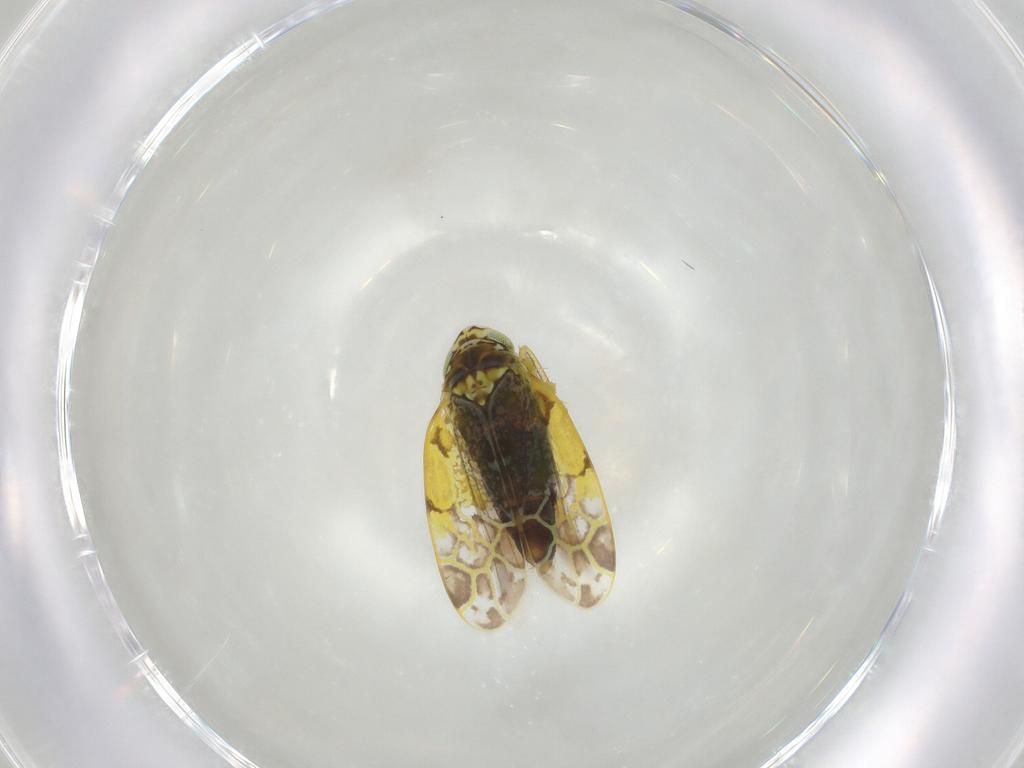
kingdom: Animalia
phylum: Arthropoda
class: Insecta
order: Hemiptera
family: Cicadellidae
